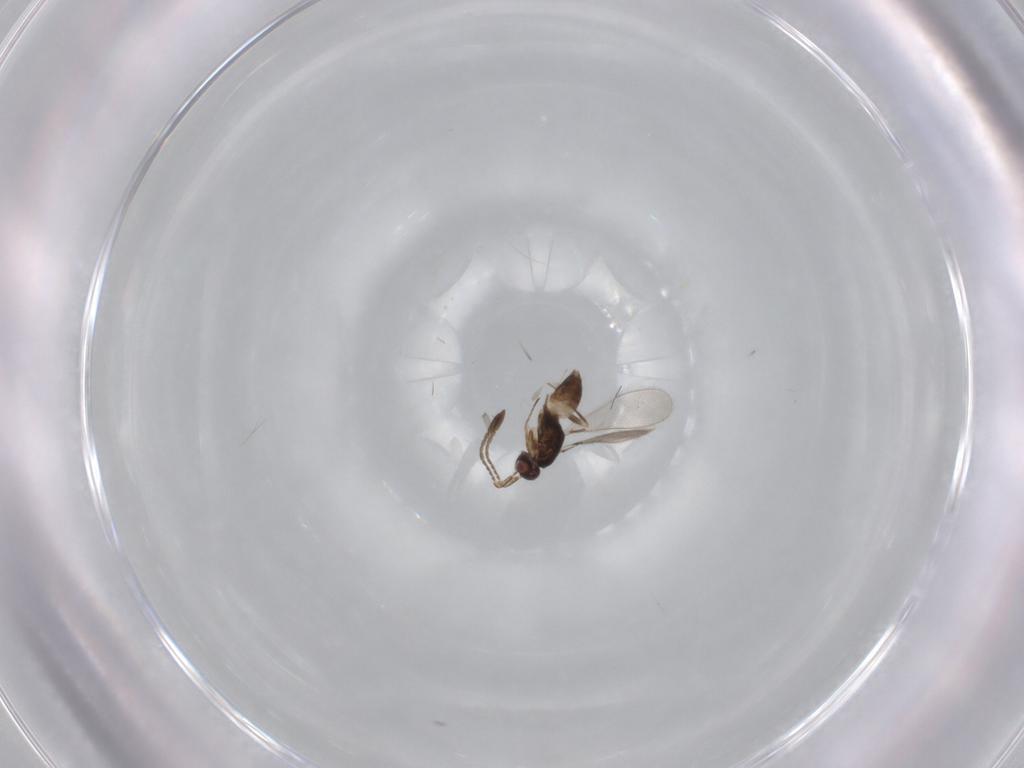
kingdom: Animalia
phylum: Arthropoda
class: Insecta
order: Hymenoptera
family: Mymaridae
